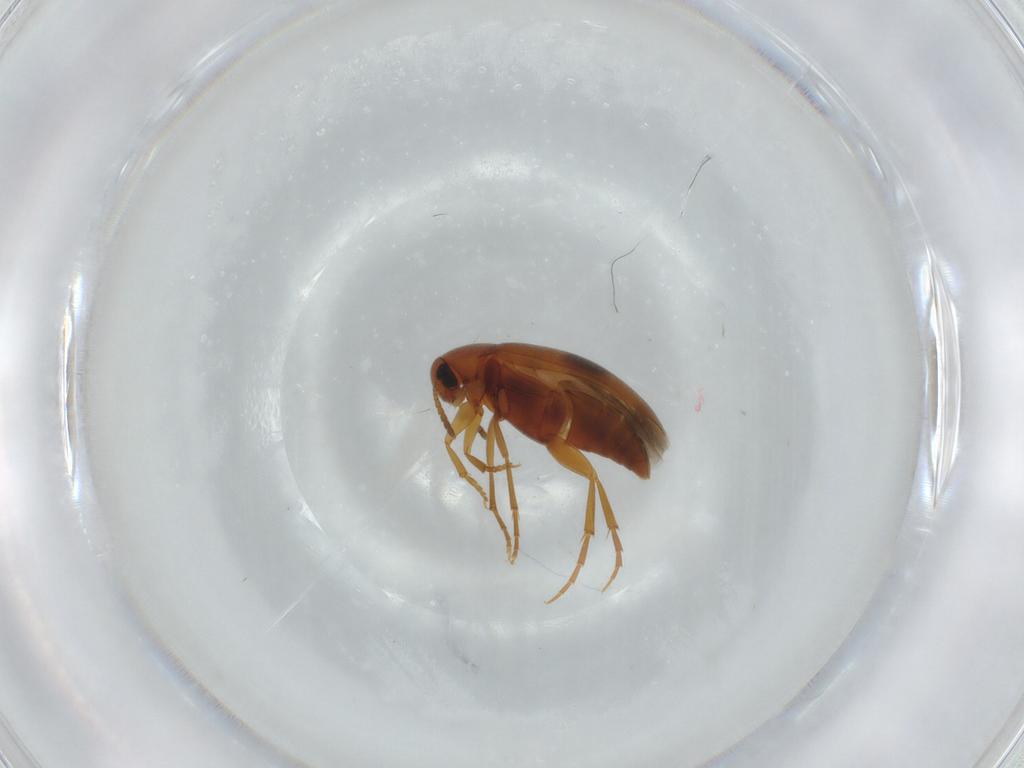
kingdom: Animalia
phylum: Arthropoda
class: Insecta
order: Coleoptera
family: Scraptiidae
